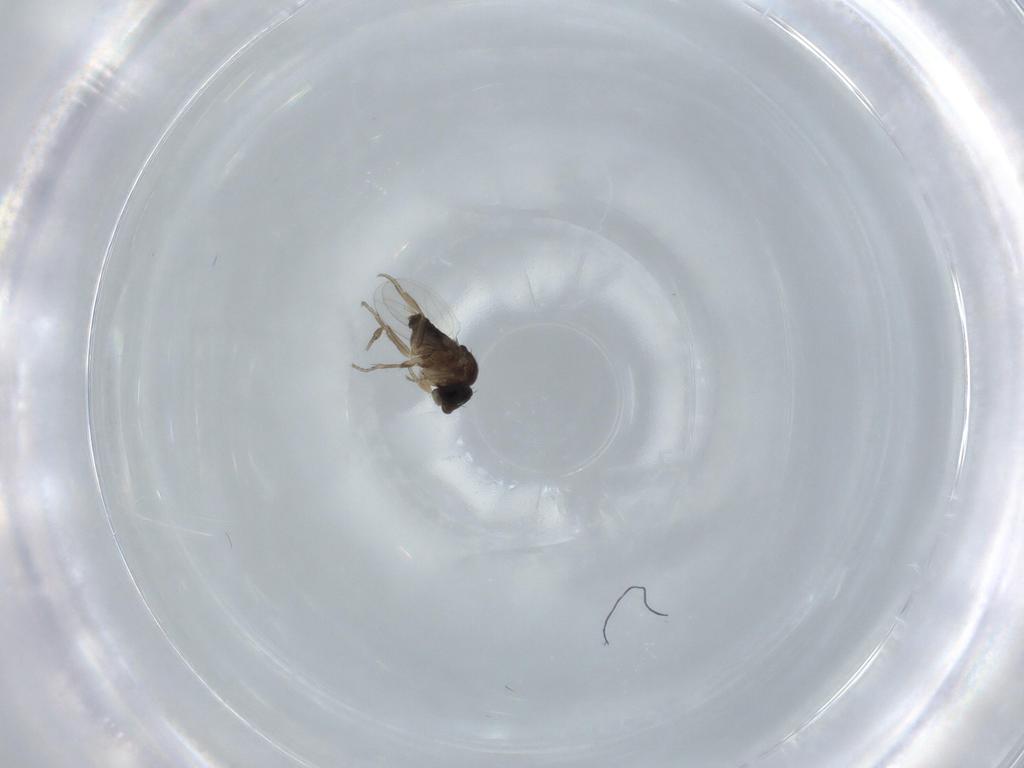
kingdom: Animalia
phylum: Arthropoda
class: Insecta
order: Diptera
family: Phoridae
